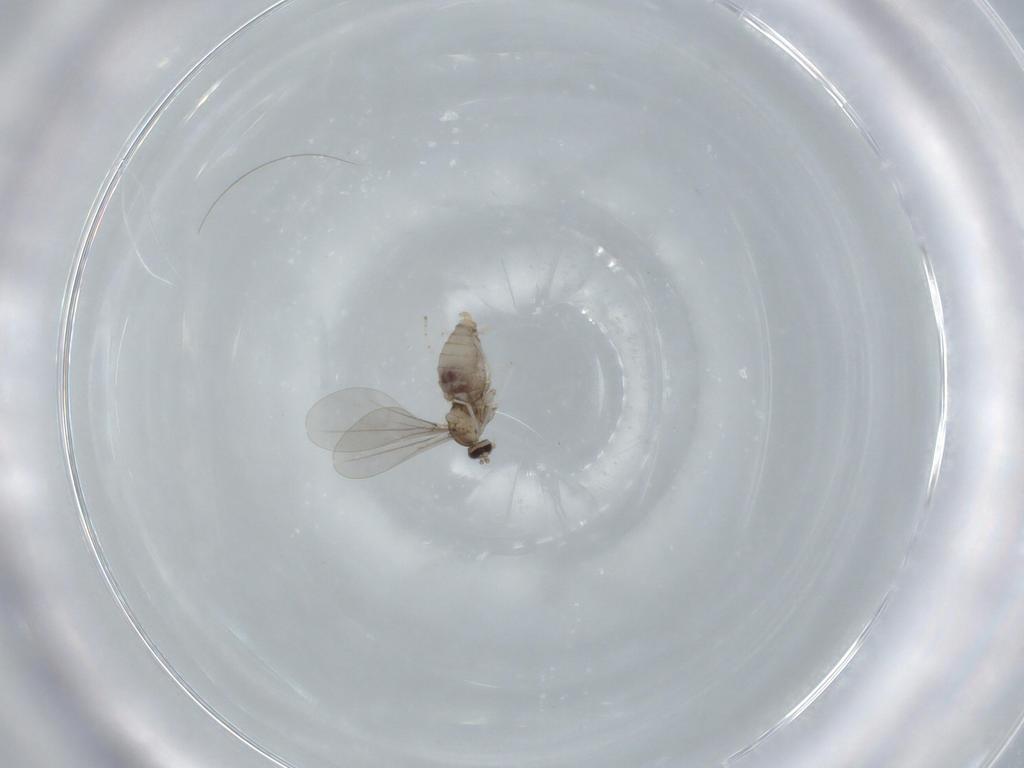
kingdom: Animalia
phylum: Arthropoda
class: Insecta
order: Diptera
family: Cecidomyiidae
